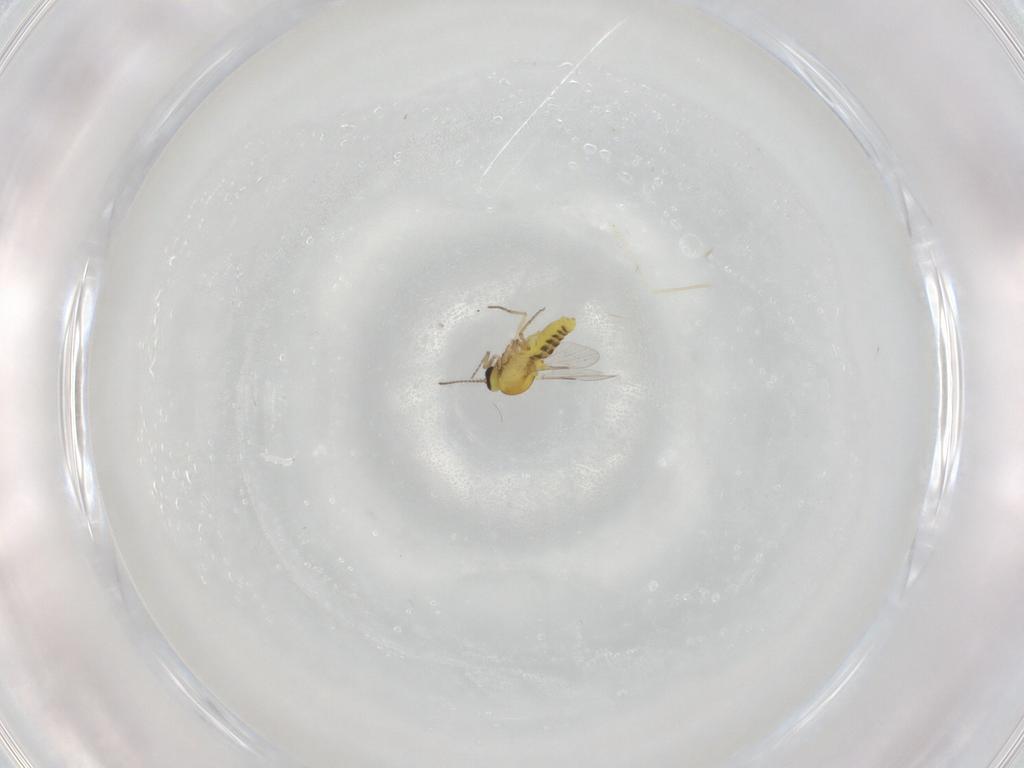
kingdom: Animalia
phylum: Arthropoda
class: Insecta
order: Diptera
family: Ceratopogonidae
